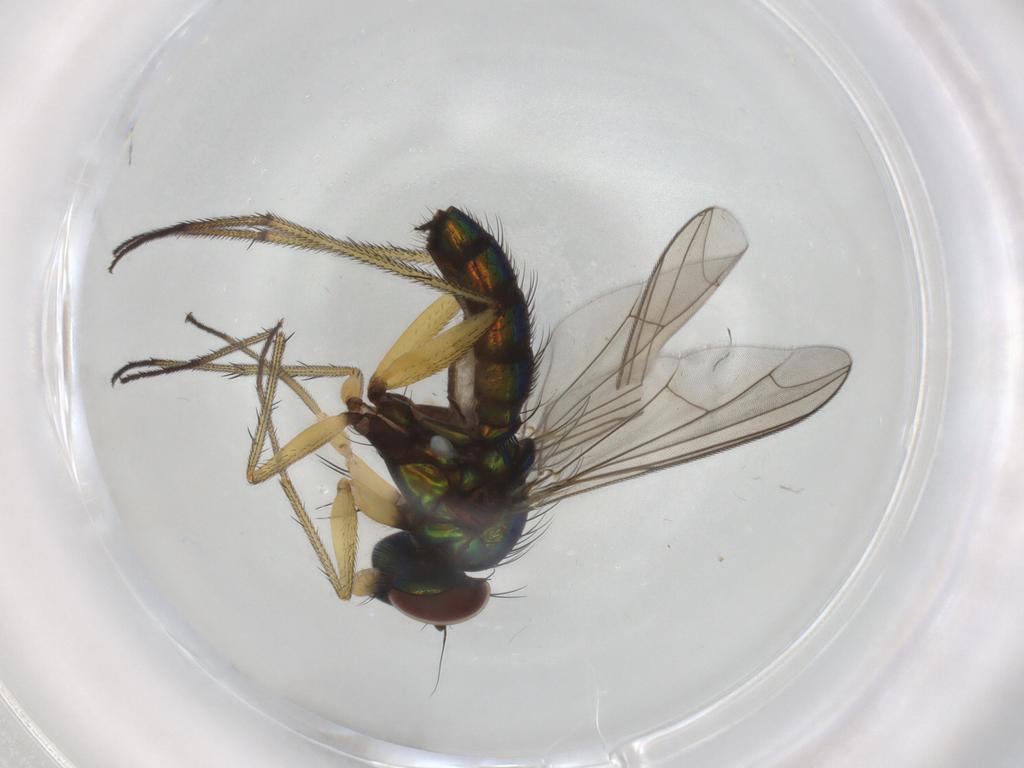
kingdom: Animalia
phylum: Arthropoda
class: Insecta
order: Diptera
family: Dolichopodidae
